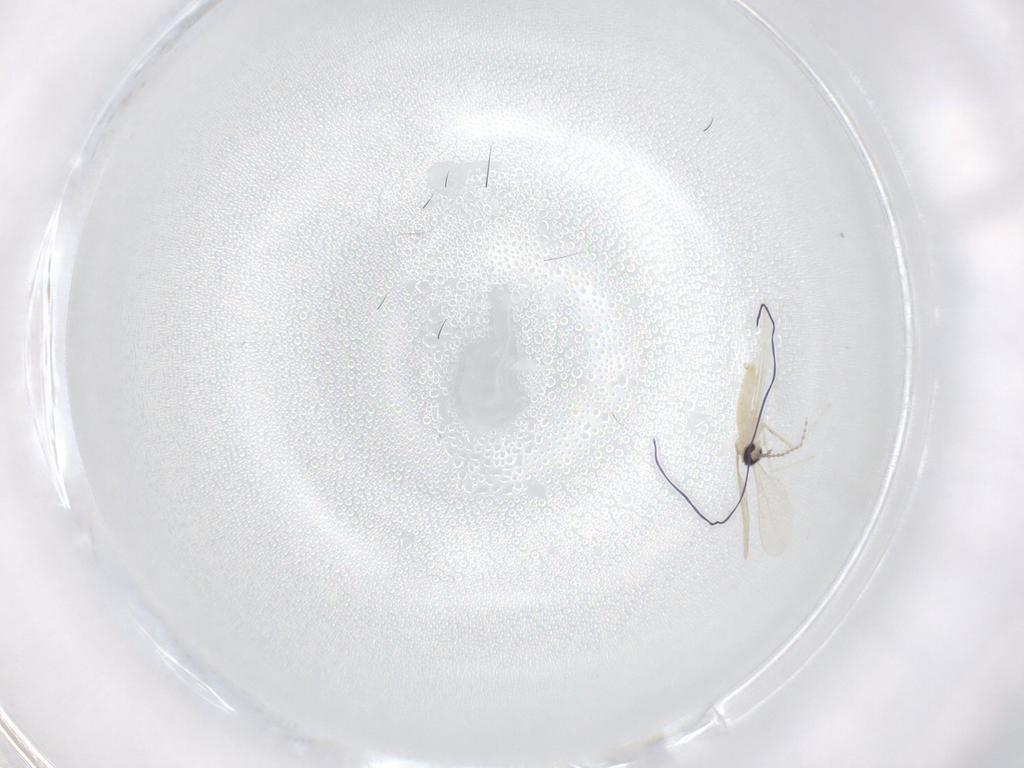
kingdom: Animalia
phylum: Arthropoda
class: Insecta
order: Diptera
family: Cecidomyiidae
